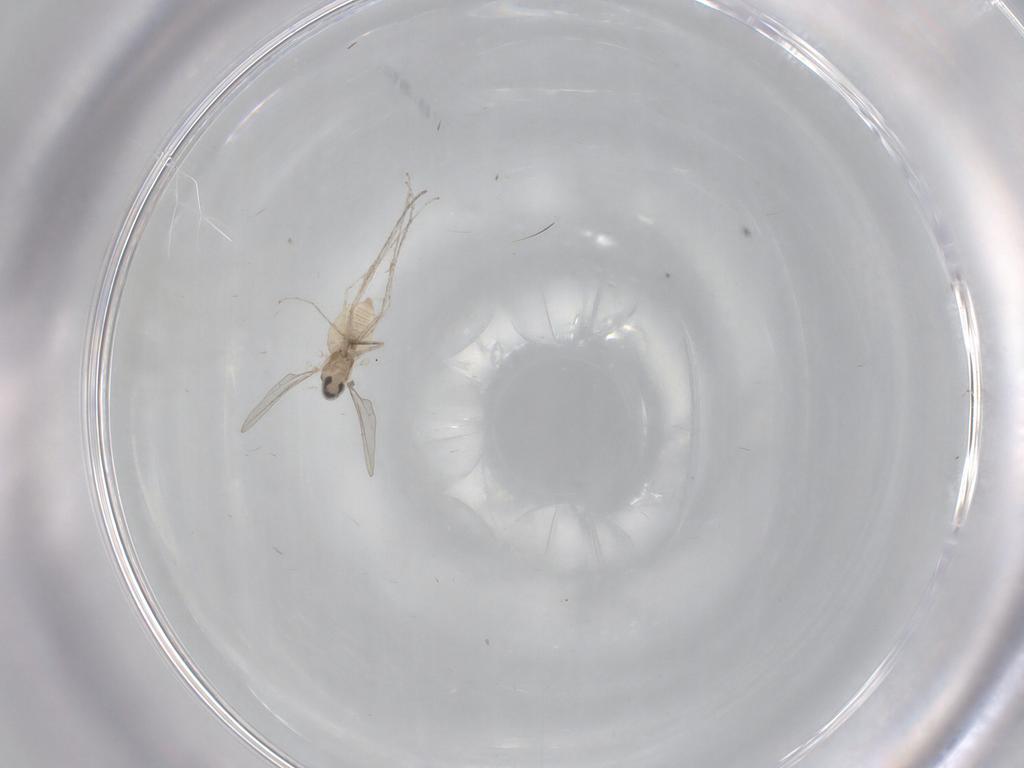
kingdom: Animalia
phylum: Arthropoda
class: Insecta
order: Diptera
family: Cecidomyiidae
